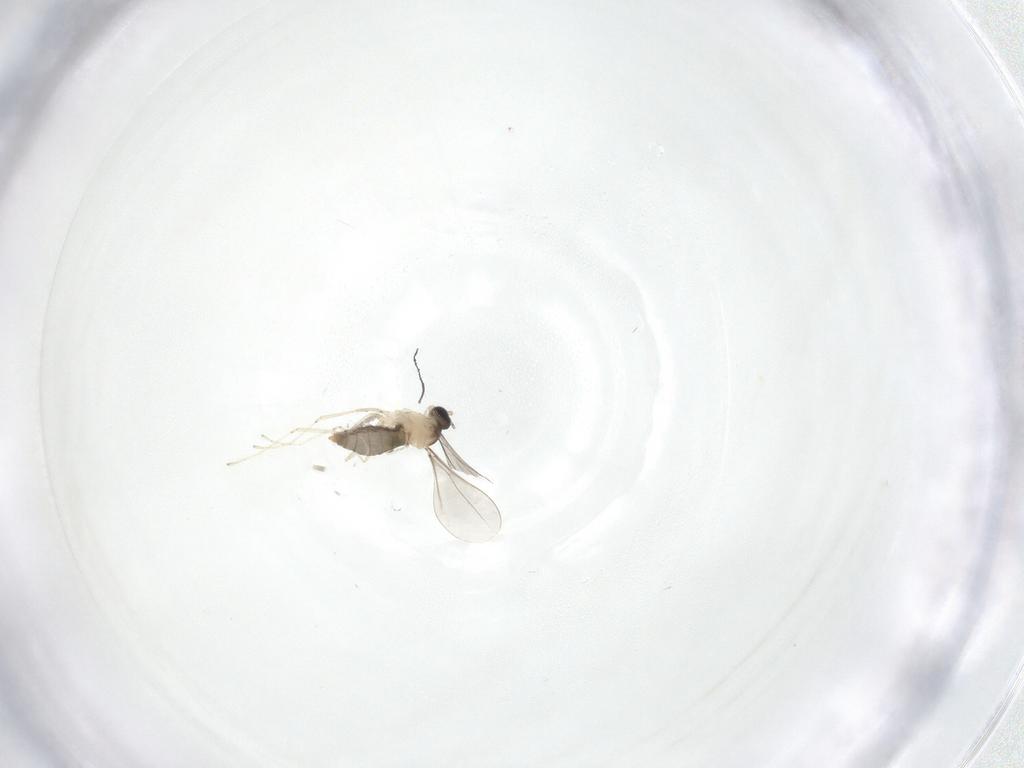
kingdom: Animalia
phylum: Arthropoda
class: Insecta
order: Diptera
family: Cecidomyiidae
